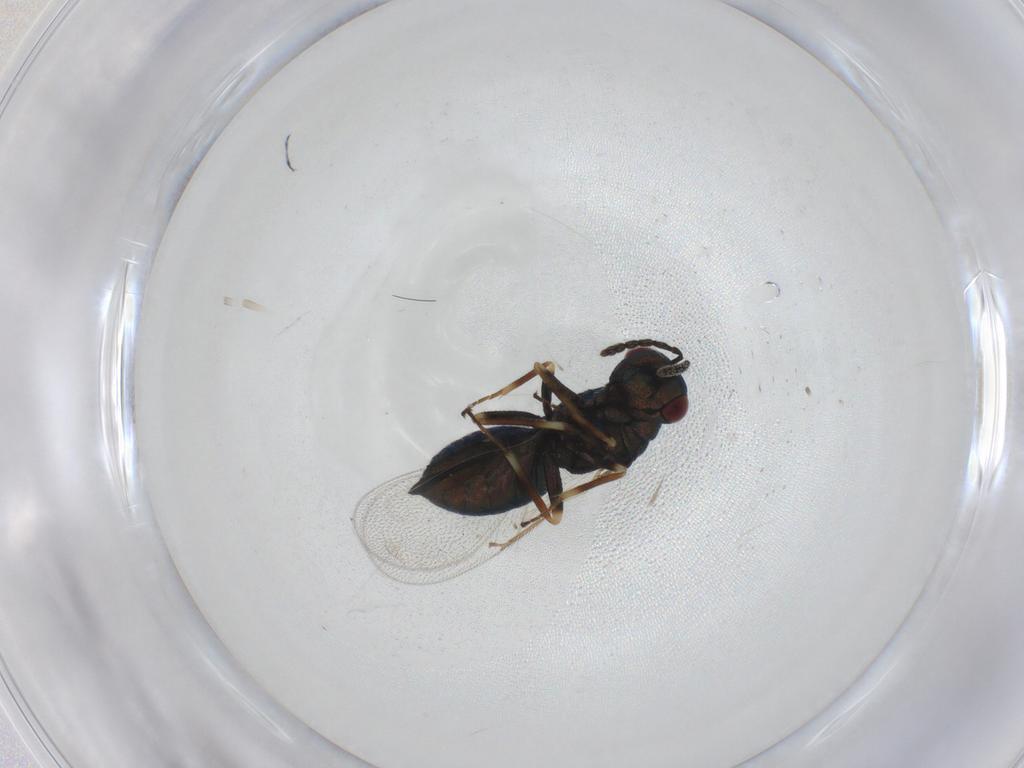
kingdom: Animalia
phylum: Arthropoda
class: Insecta
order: Hymenoptera
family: Eulophidae
